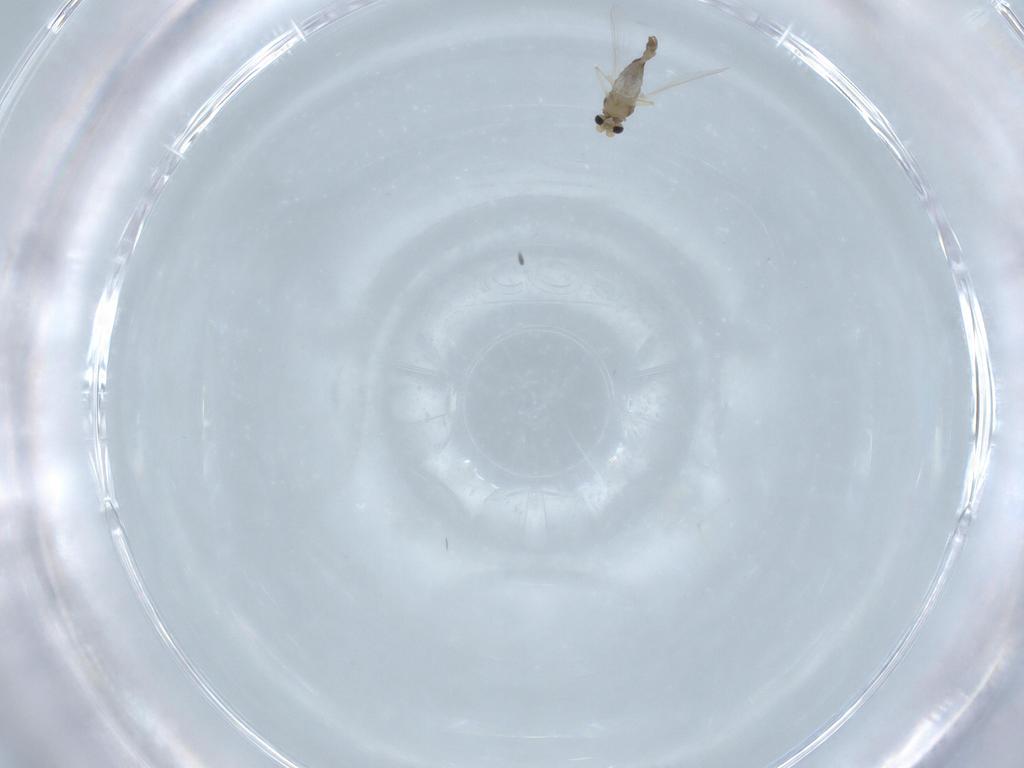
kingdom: Animalia
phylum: Arthropoda
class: Insecta
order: Diptera
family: Chironomidae
